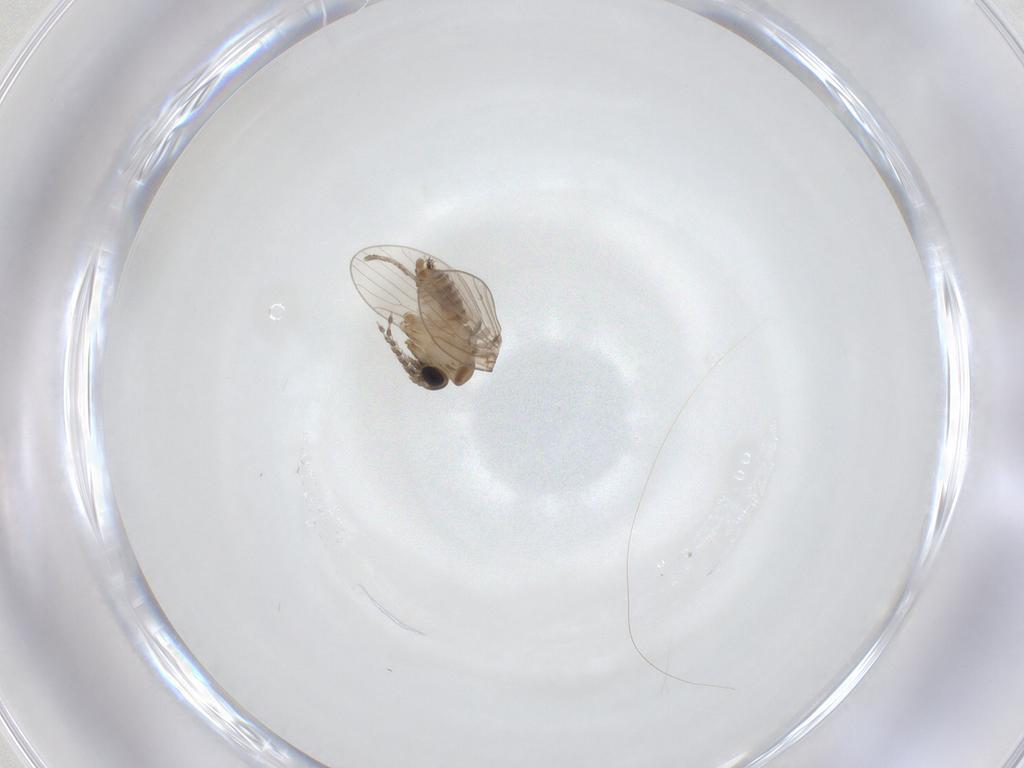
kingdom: Animalia
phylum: Arthropoda
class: Insecta
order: Diptera
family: Psychodidae
